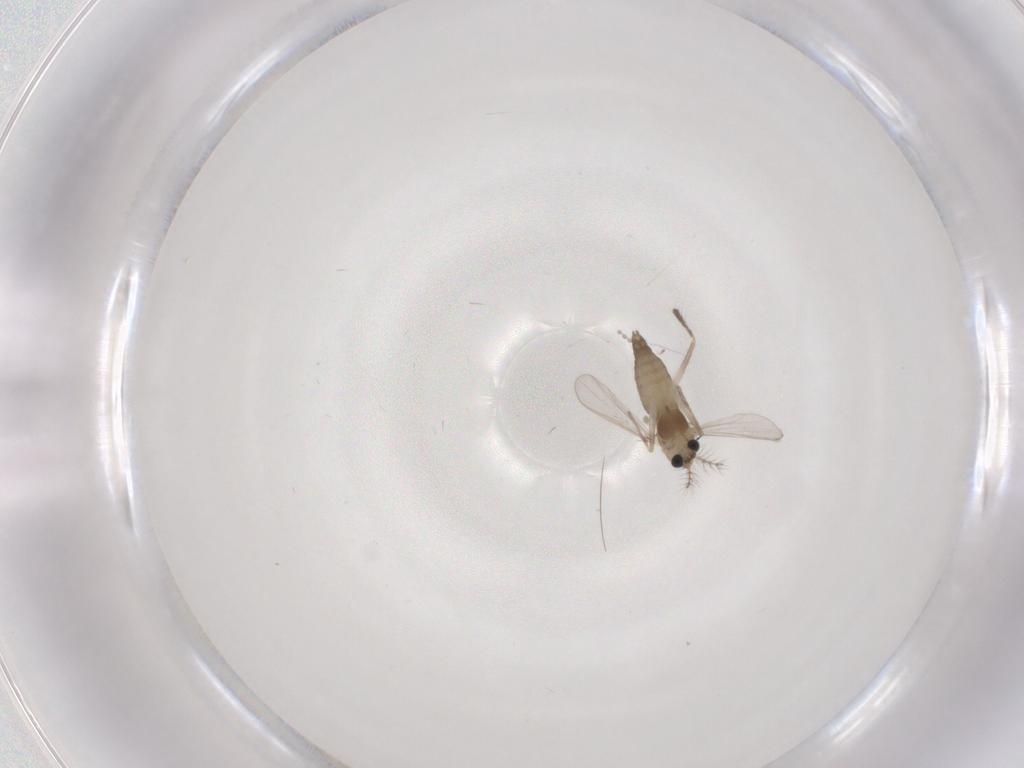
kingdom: Animalia
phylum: Arthropoda
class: Insecta
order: Diptera
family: Chironomidae
